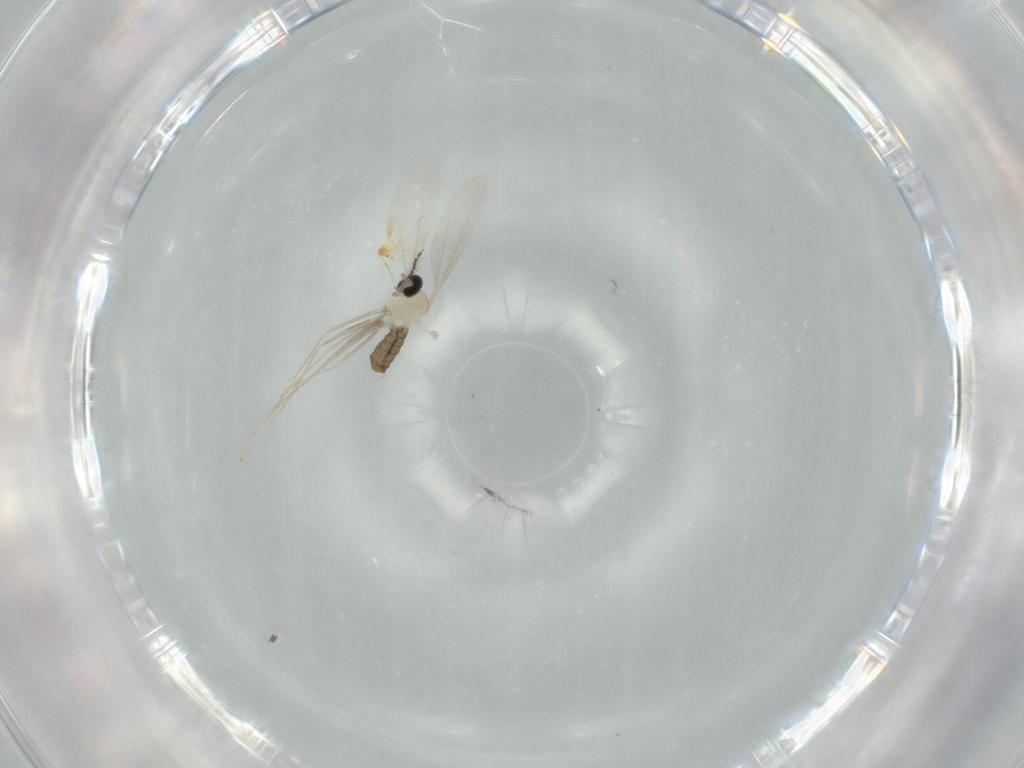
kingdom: Animalia
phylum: Arthropoda
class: Insecta
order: Diptera
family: Cecidomyiidae
